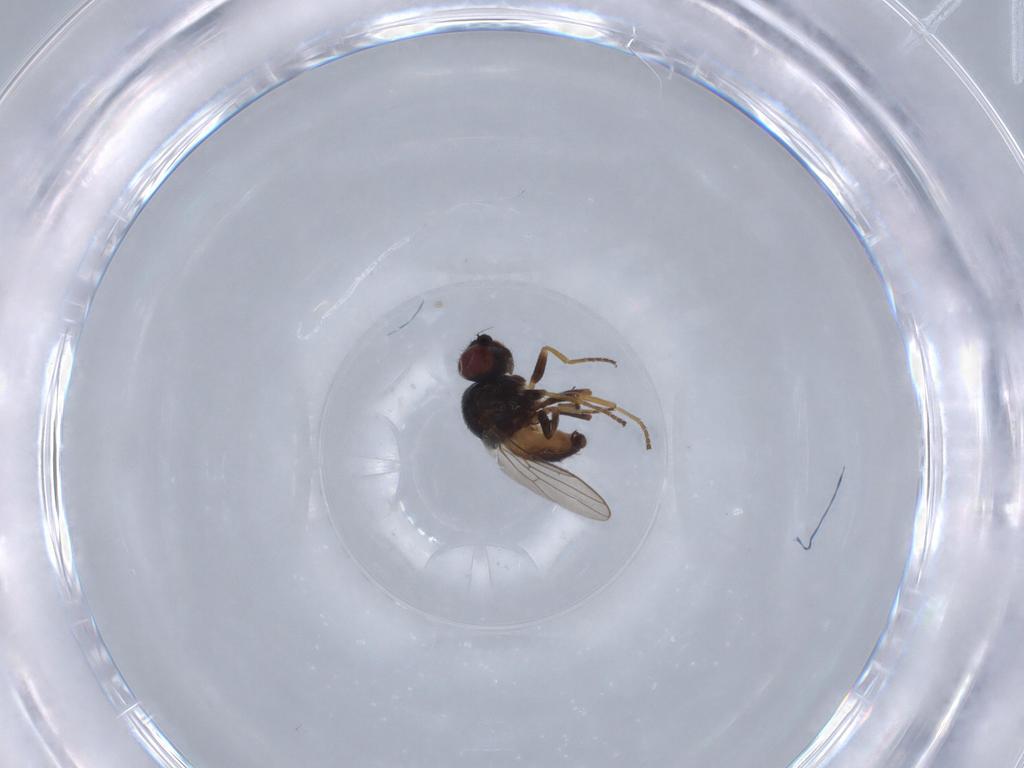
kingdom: Animalia
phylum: Arthropoda
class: Insecta
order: Diptera
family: Chloropidae
